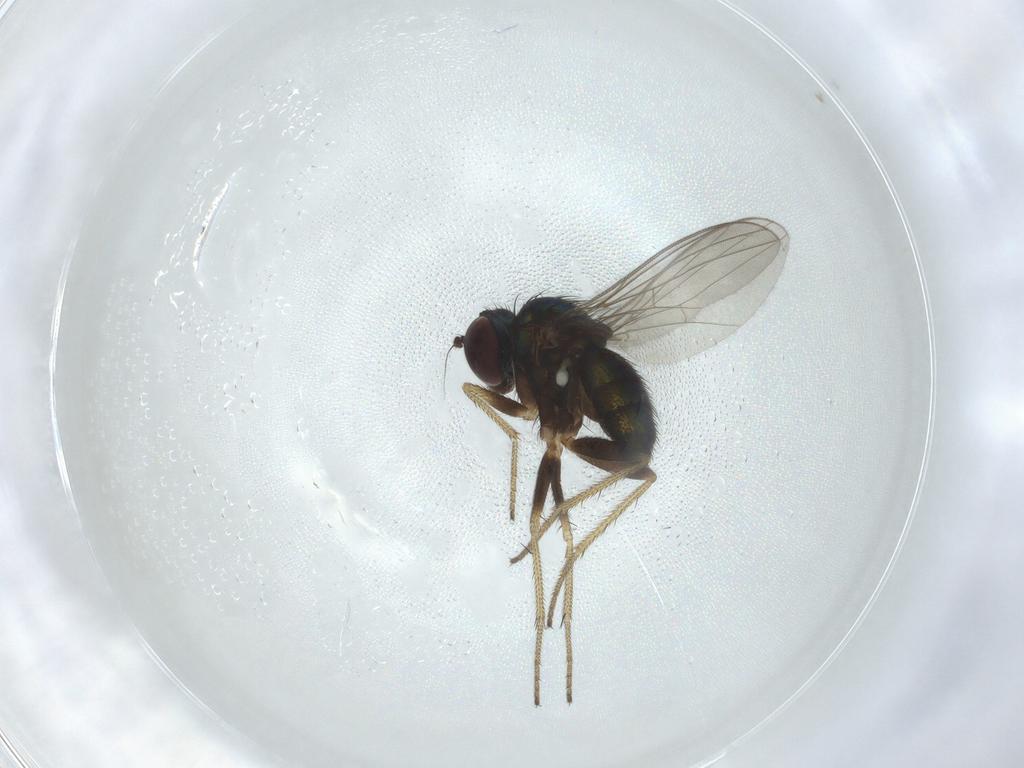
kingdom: Animalia
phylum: Arthropoda
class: Insecta
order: Diptera
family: Dolichopodidae
